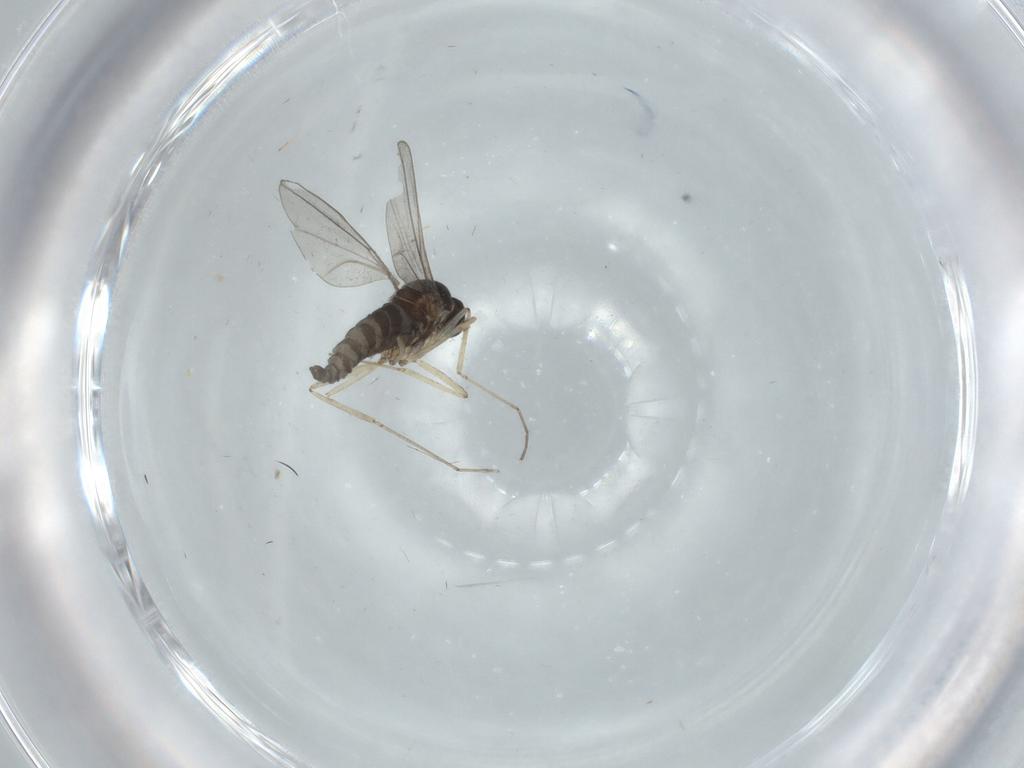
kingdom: Animalia
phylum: Arthropoda
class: Insecta
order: Diptera
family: Cecidomyiidae
